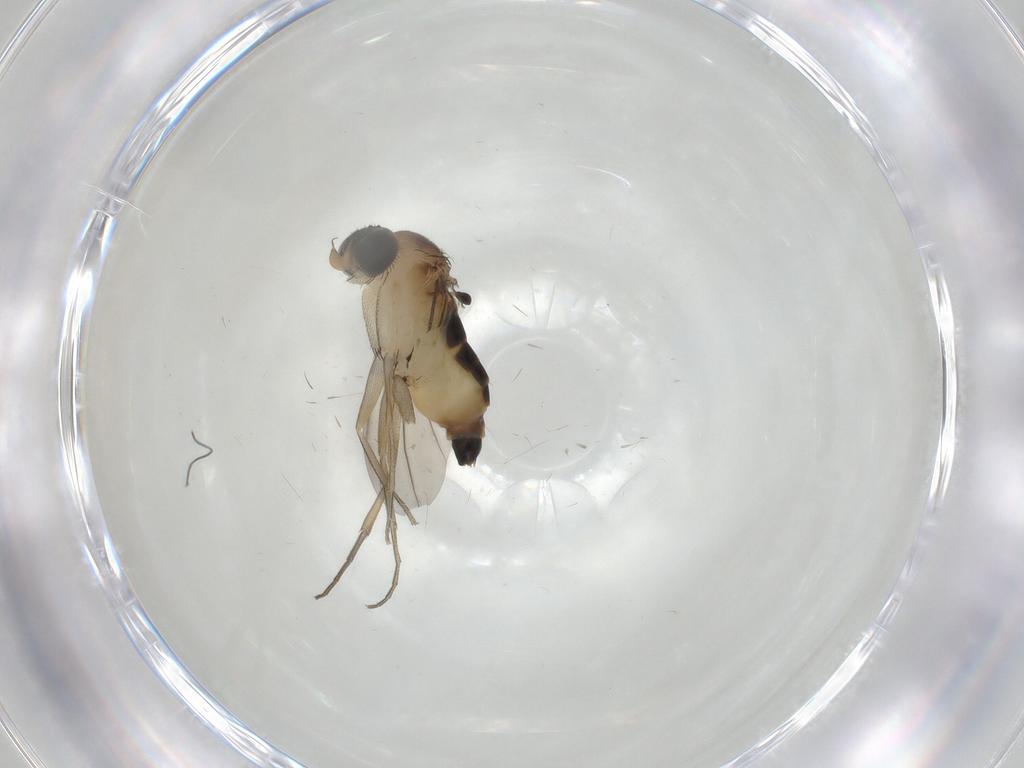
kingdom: Animalia
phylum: Arthropoda
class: Insecta
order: Diptera
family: Phoridae
